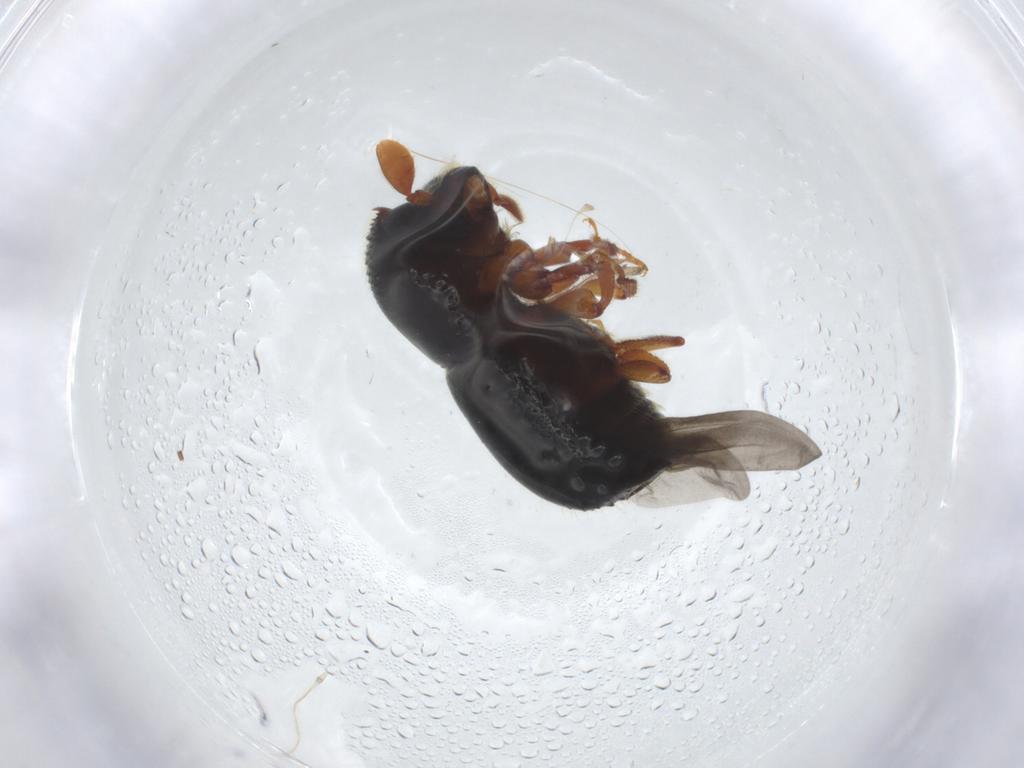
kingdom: Animalia
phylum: Arthropoda
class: Insecta
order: Coleoptera
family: Curculionidae
